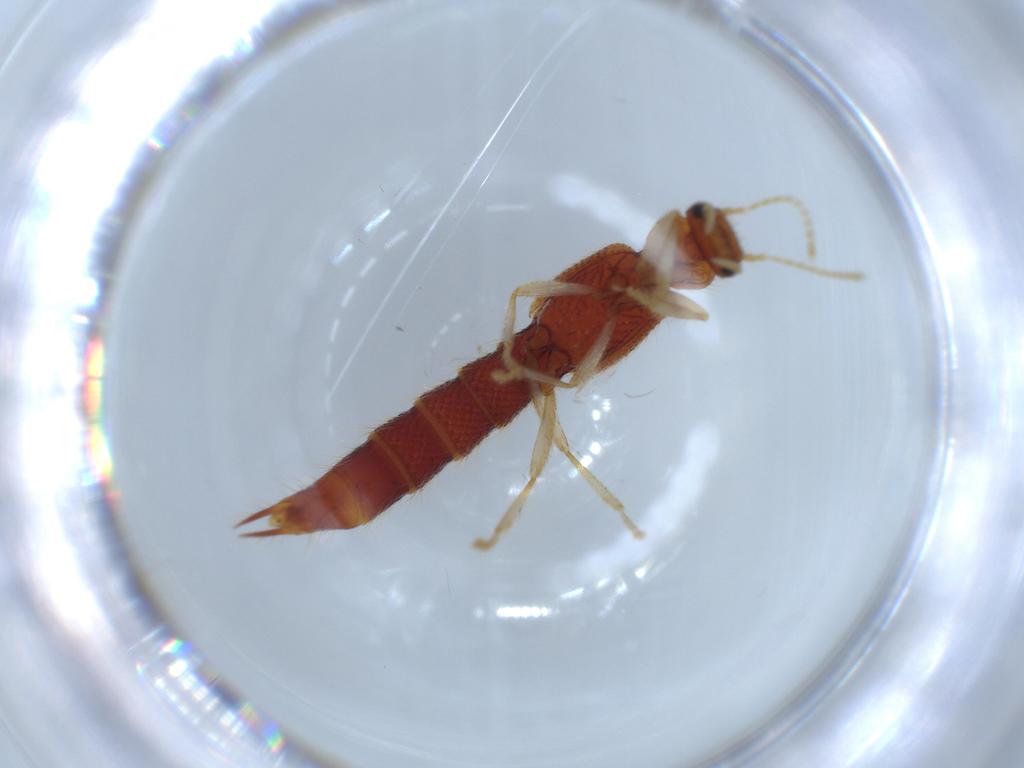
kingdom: Animalia
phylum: Arthropoda
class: Insecta
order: Coleoptera
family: Staphylinidae
